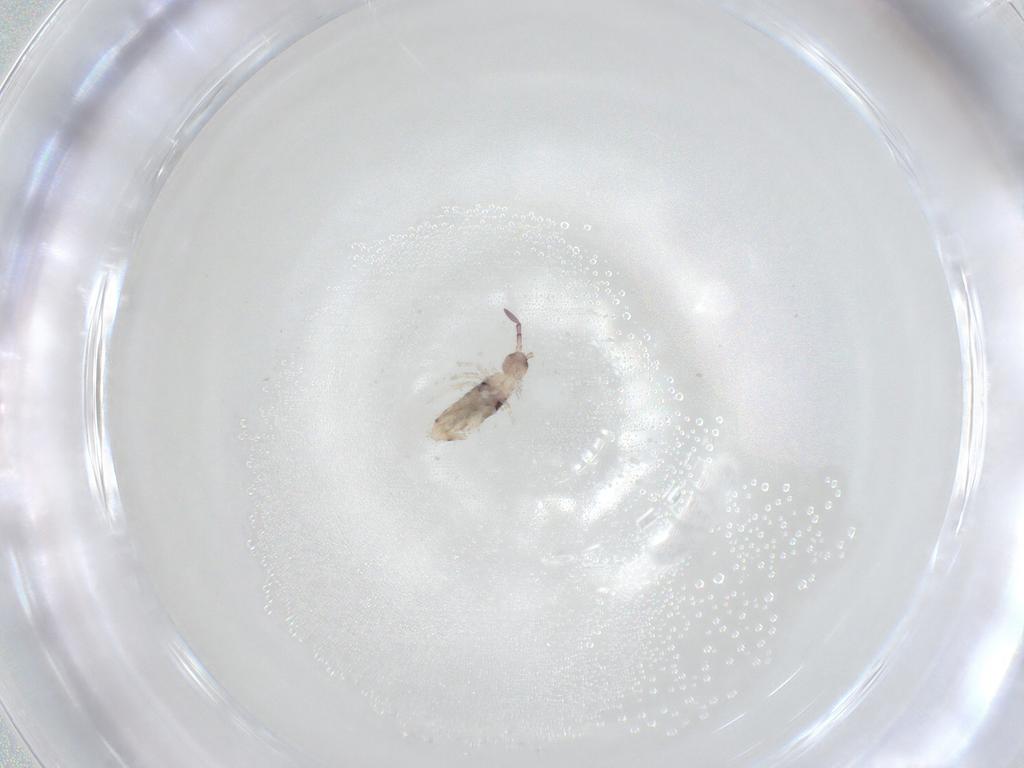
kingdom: Animalia
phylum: Arthropoda
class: Collembola
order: Entomobryomorpha
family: Entomobryidae
